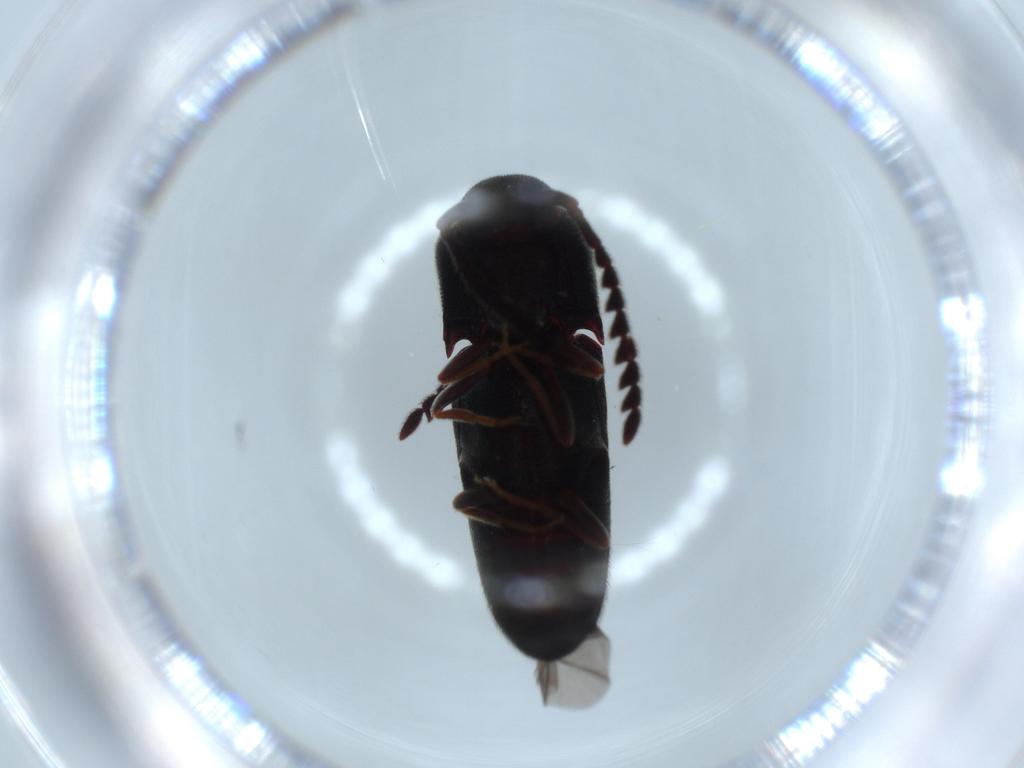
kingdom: Animalia
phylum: Arthropoda
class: Insecta
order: Coleoptera
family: Eucnemidae
